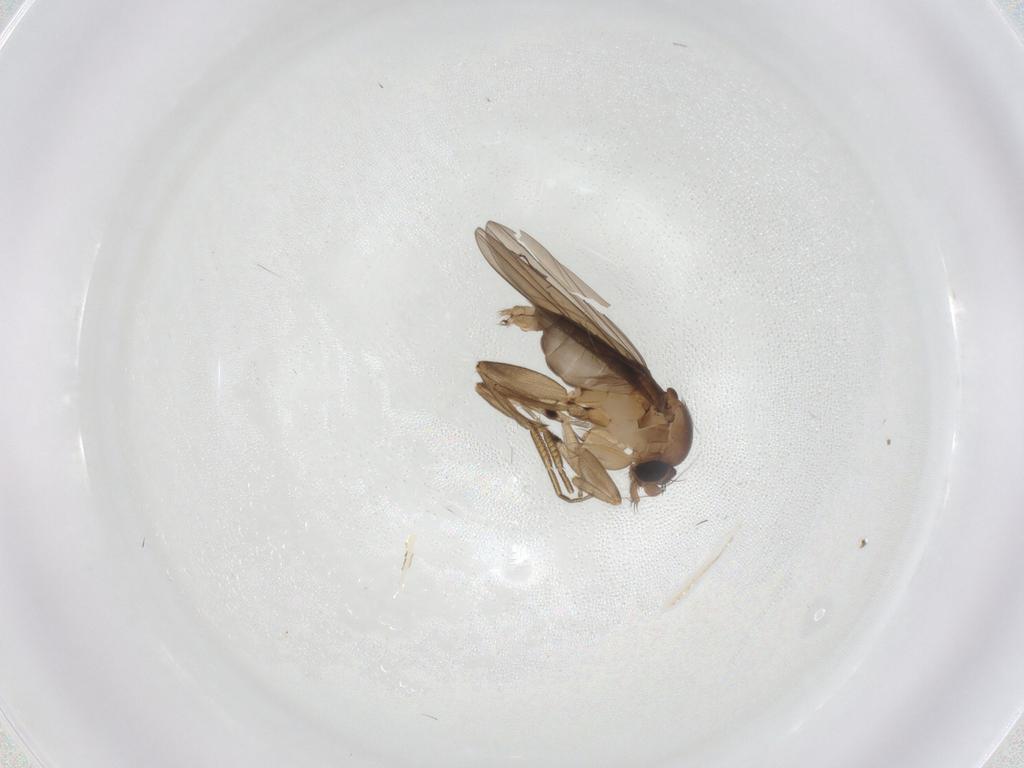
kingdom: Animalia
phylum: Arthropoda
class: Insecta
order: Diptera
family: Phoridae
